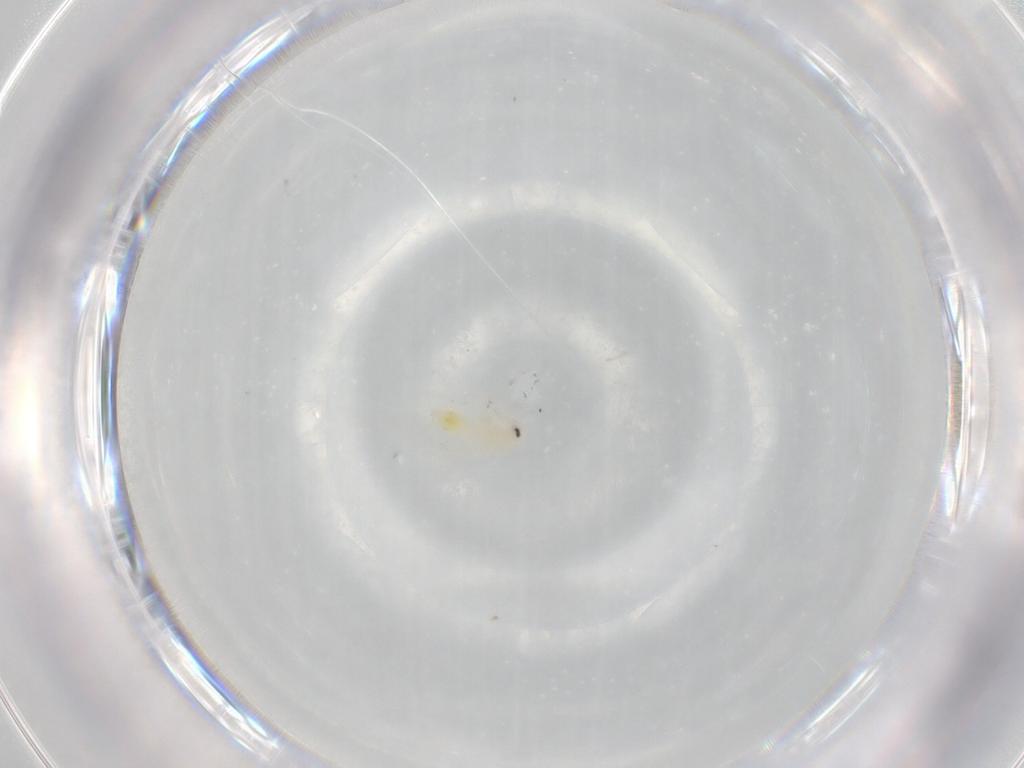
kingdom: Animalia
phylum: Arthropoda
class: Insecta
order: Hemiptera
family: Aleyrodidae
